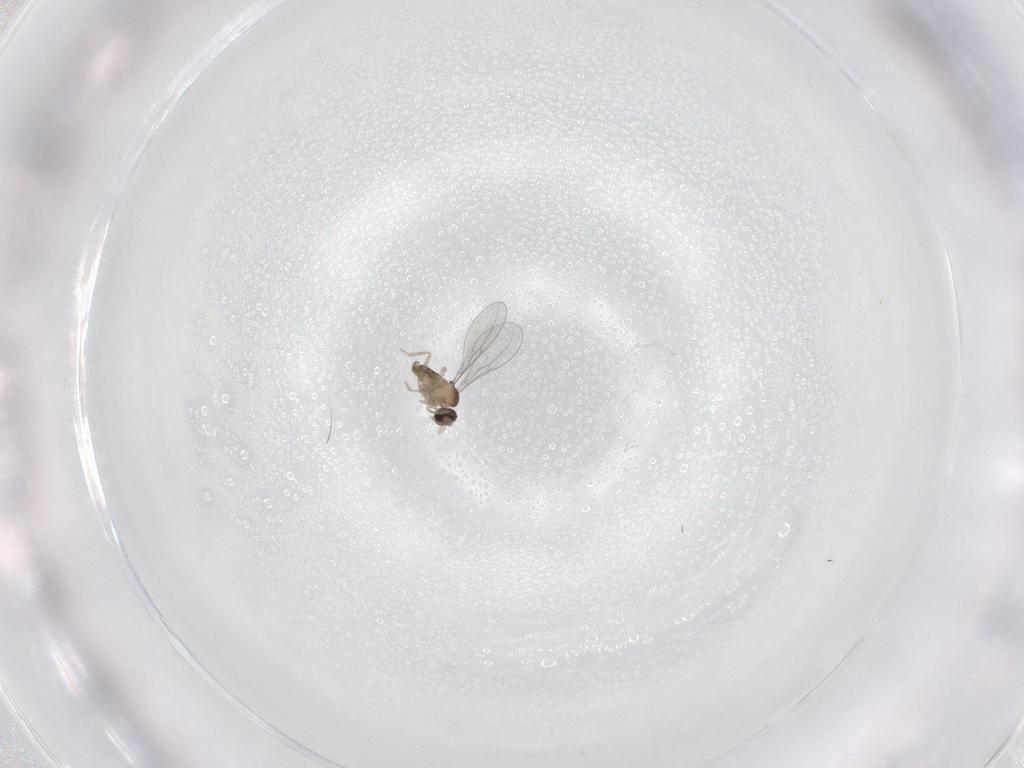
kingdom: Animalia
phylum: Arthropoda
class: Insecta
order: Diptera
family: Cecidomyiidae
